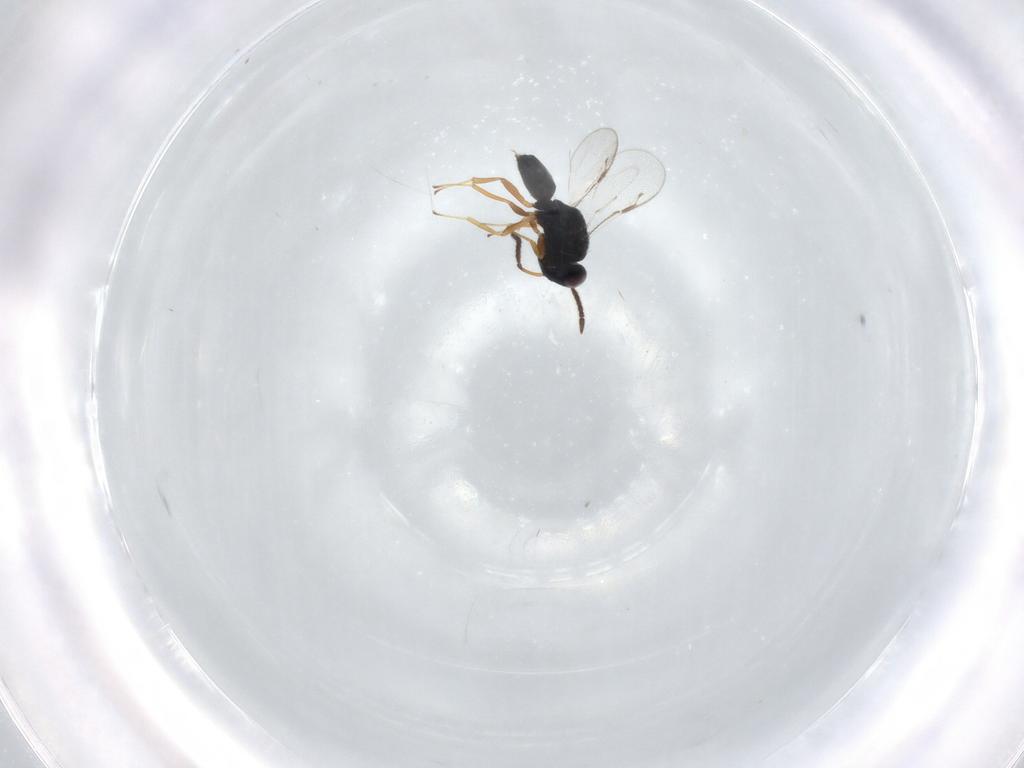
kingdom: Animalia
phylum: Arthropoda
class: Insecta
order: Hymenoptera
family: Pteromalidae
